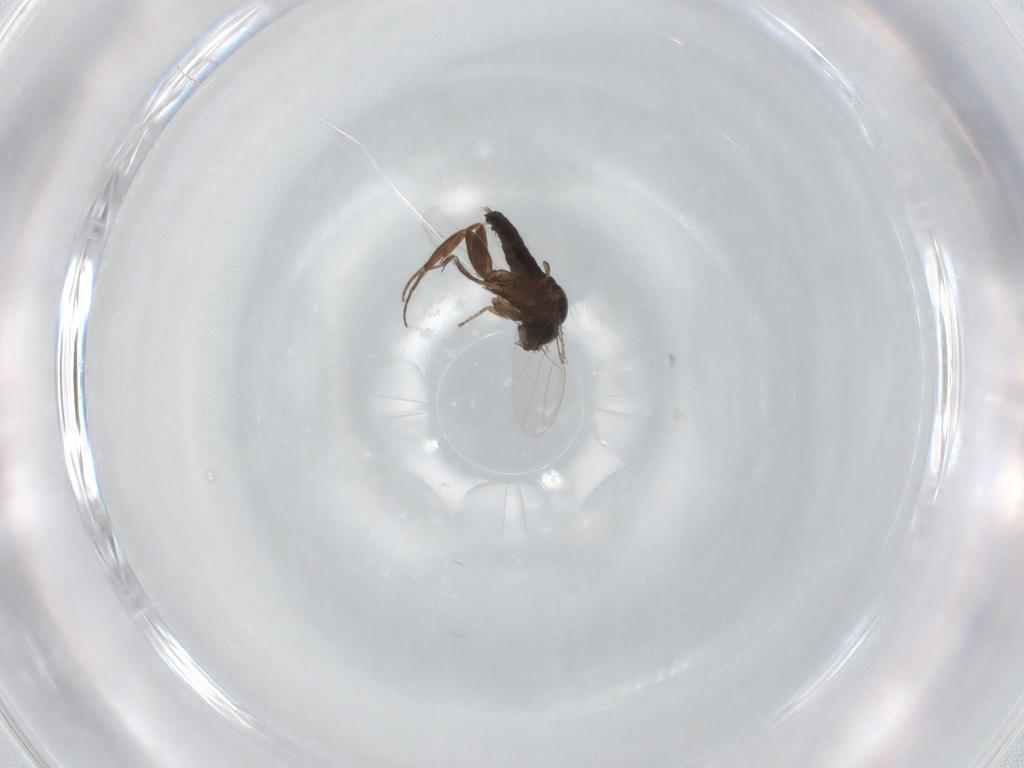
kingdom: Animalia
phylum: Arthropoda
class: Insecta
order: Diptera
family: Phoridae
